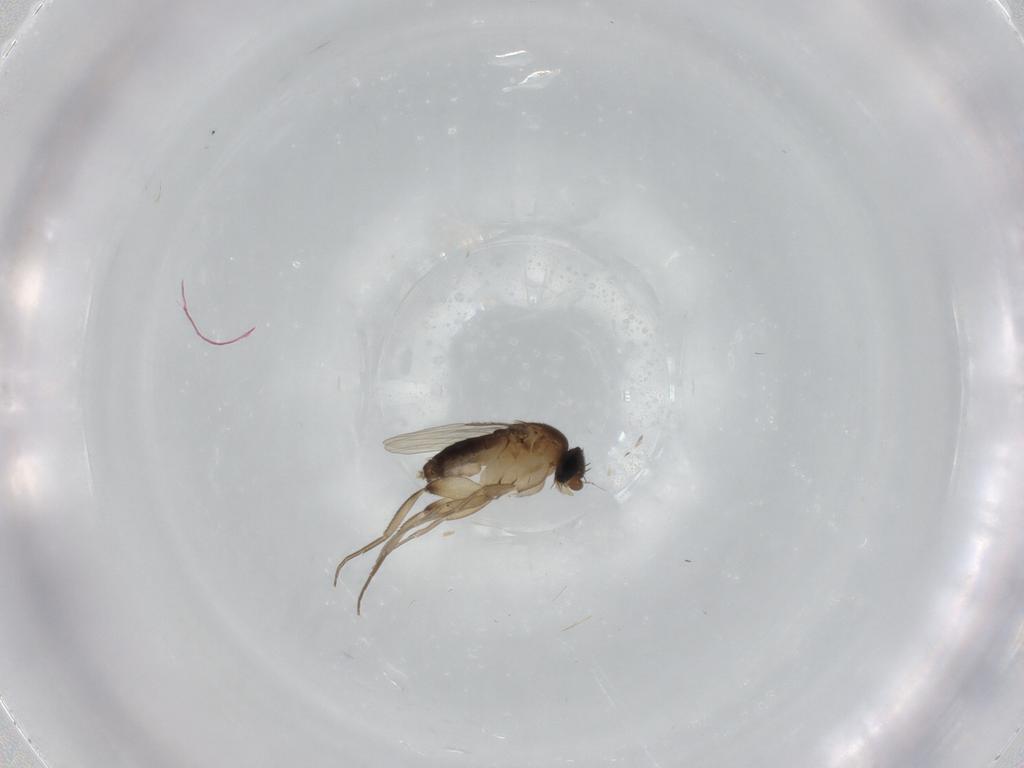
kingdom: Animalia
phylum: Arthropoda
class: Insecta
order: Diptera
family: Phoridae
